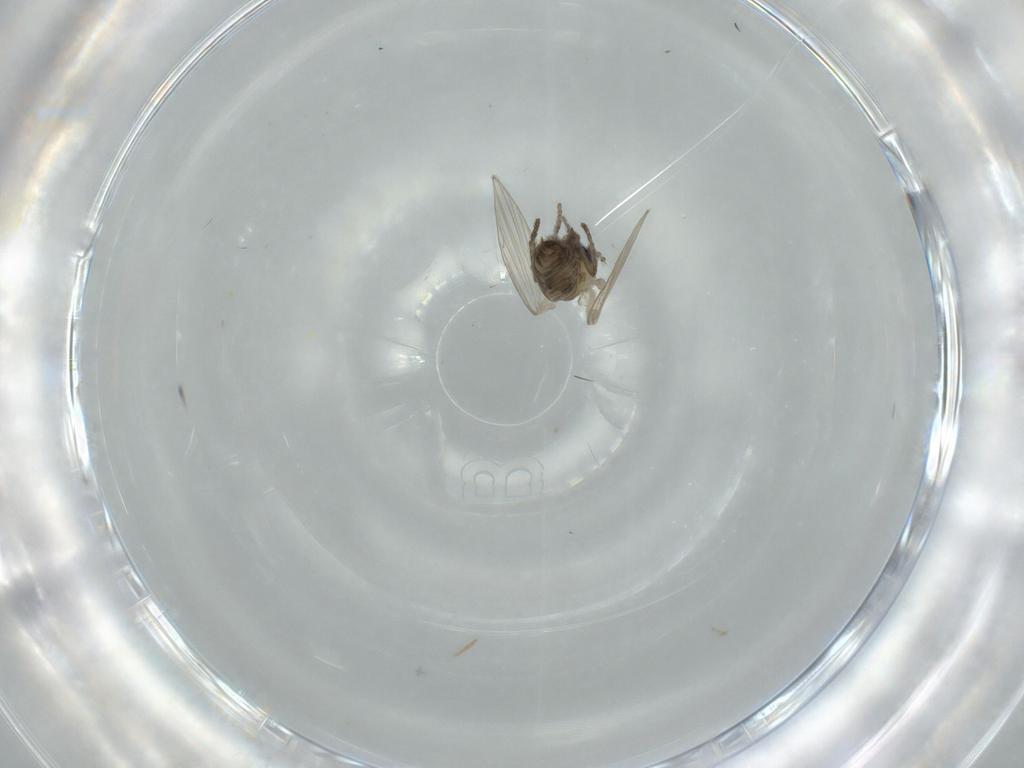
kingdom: Animalia
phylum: Arthropoda
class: Insecta
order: Diptera
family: Psychodidae
